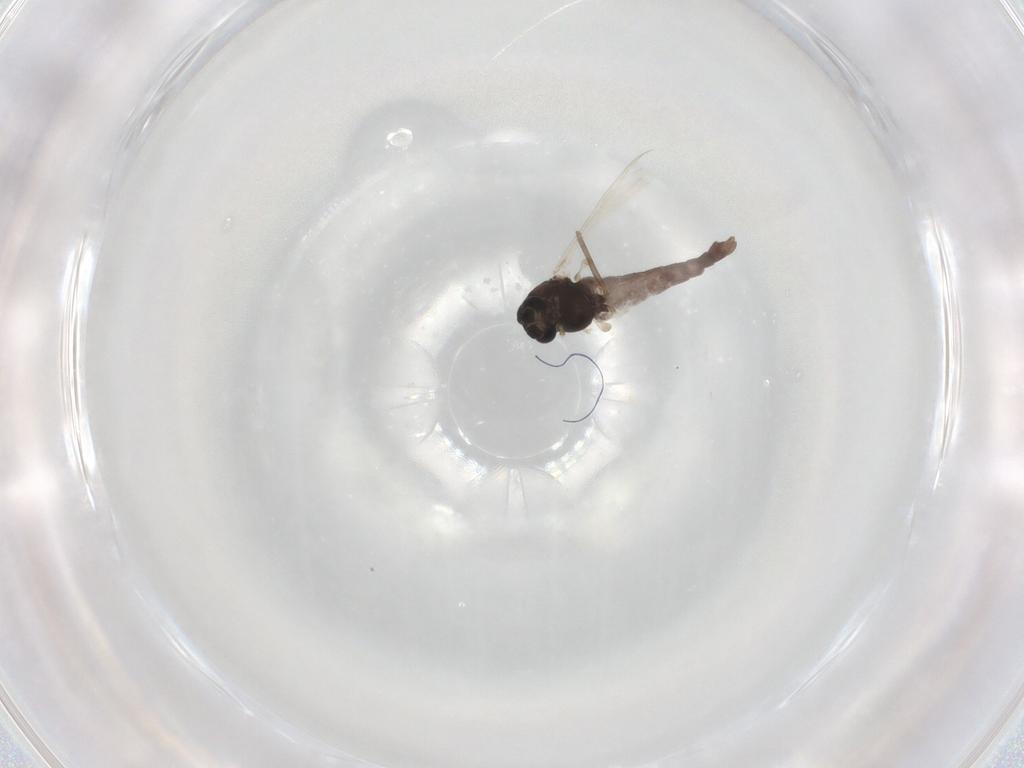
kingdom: Animalia
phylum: Arthropoda
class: Insecta
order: Diptera
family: Chironomidae
